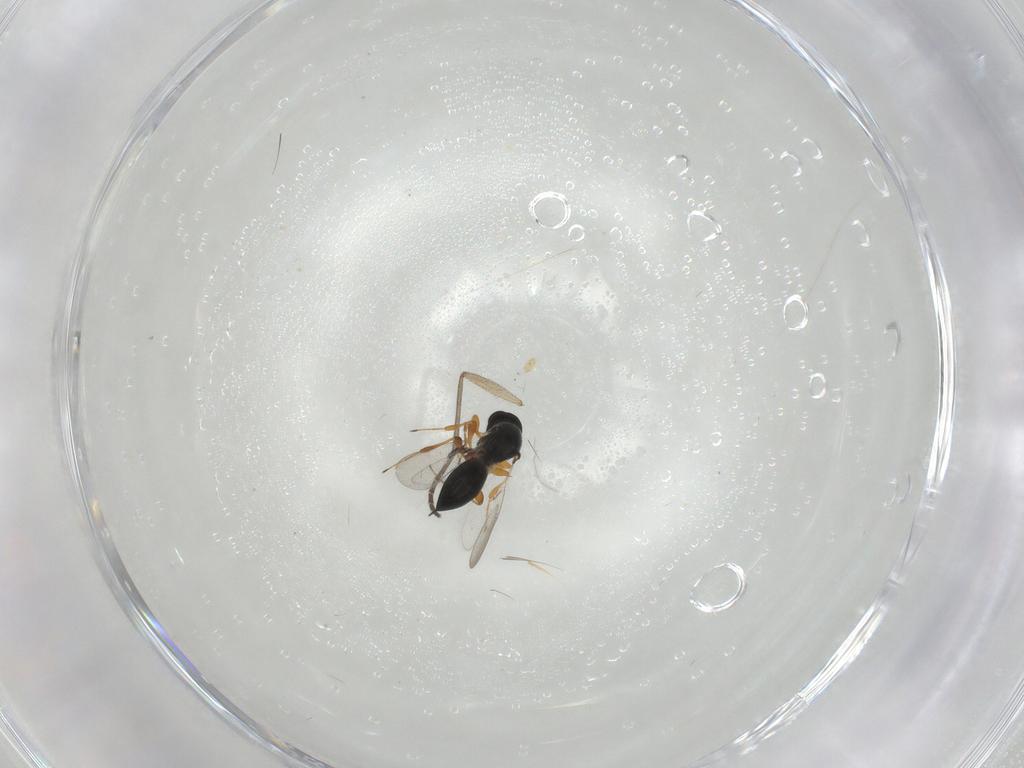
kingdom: Animalia
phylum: Arthropoda
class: Insecta
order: Hymenoptera
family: Platygastridae
